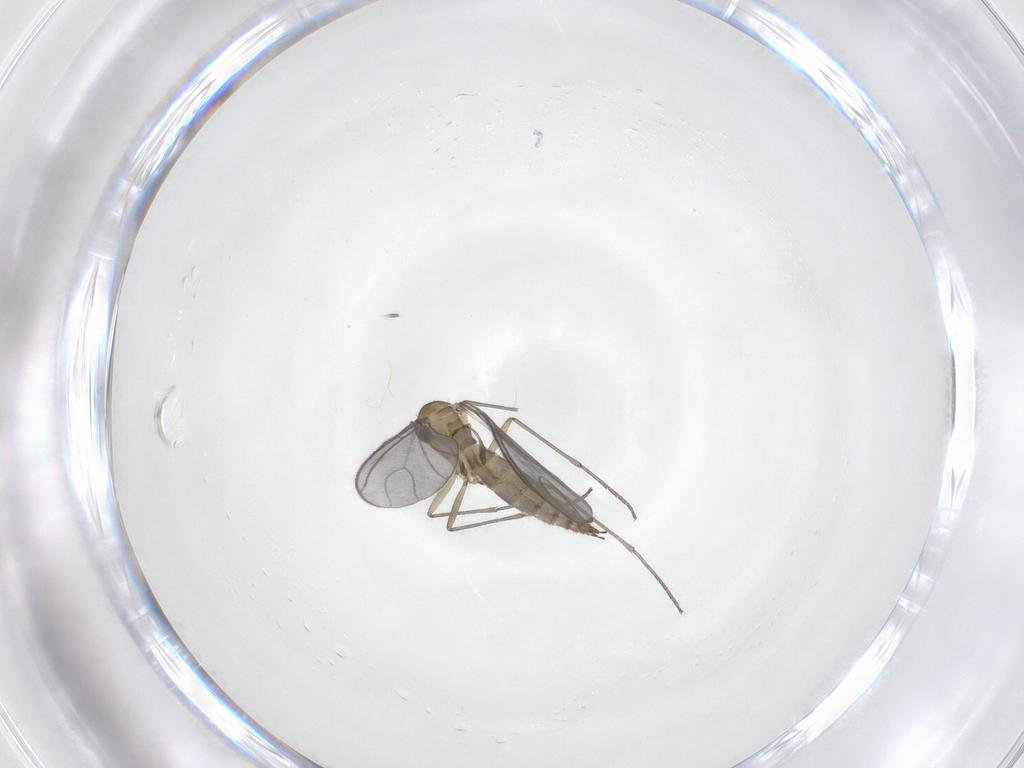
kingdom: Animalia
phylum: Arthropoda
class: Insecta
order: Diptera
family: Sciaridae
